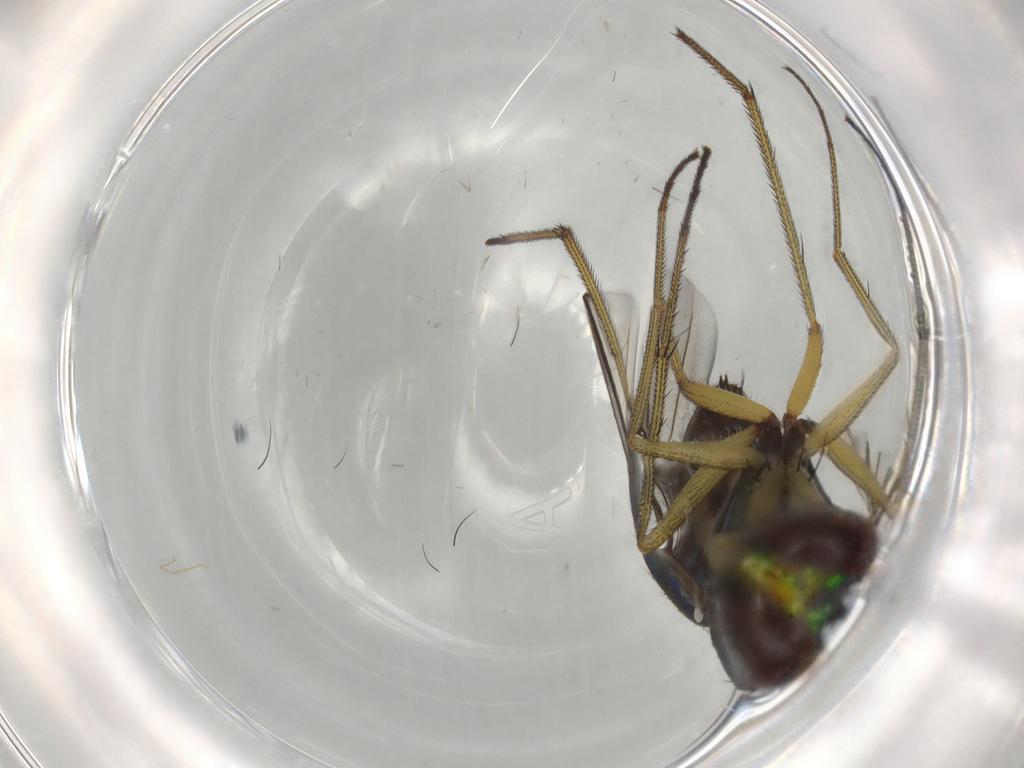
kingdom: Animalia
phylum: Arthropoda
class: Insecta
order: Diptera
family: Dolichopodidae
